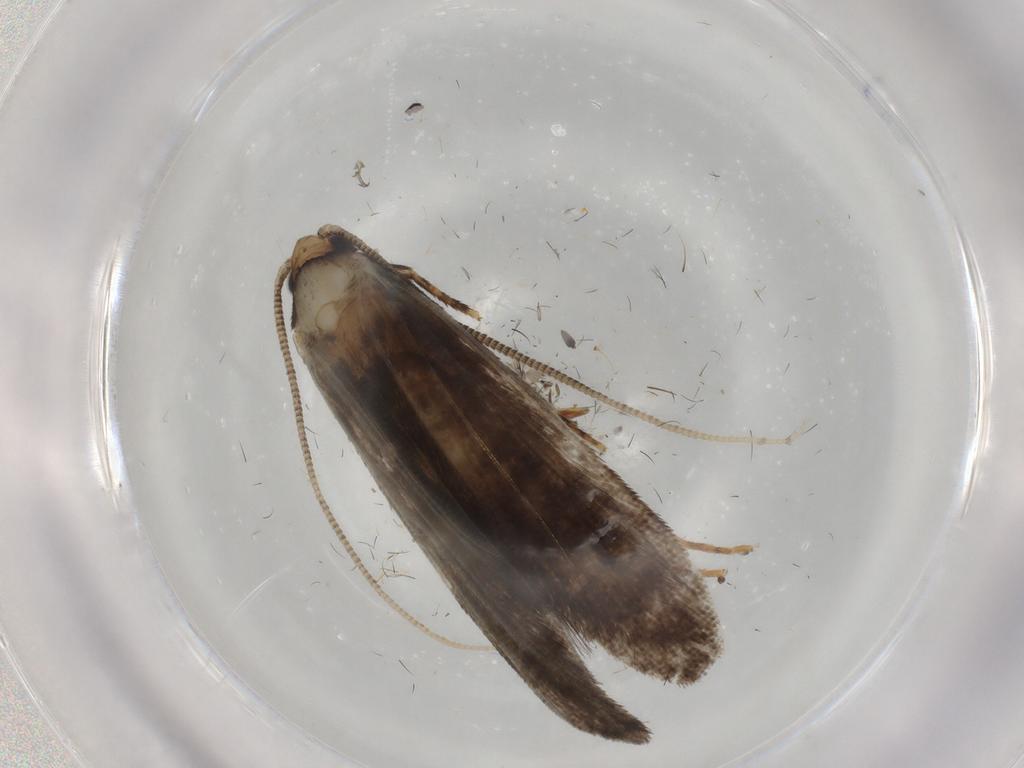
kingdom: Animalia
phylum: Arthropoda
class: Insecta
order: Lepidoptera
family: Tineidae
